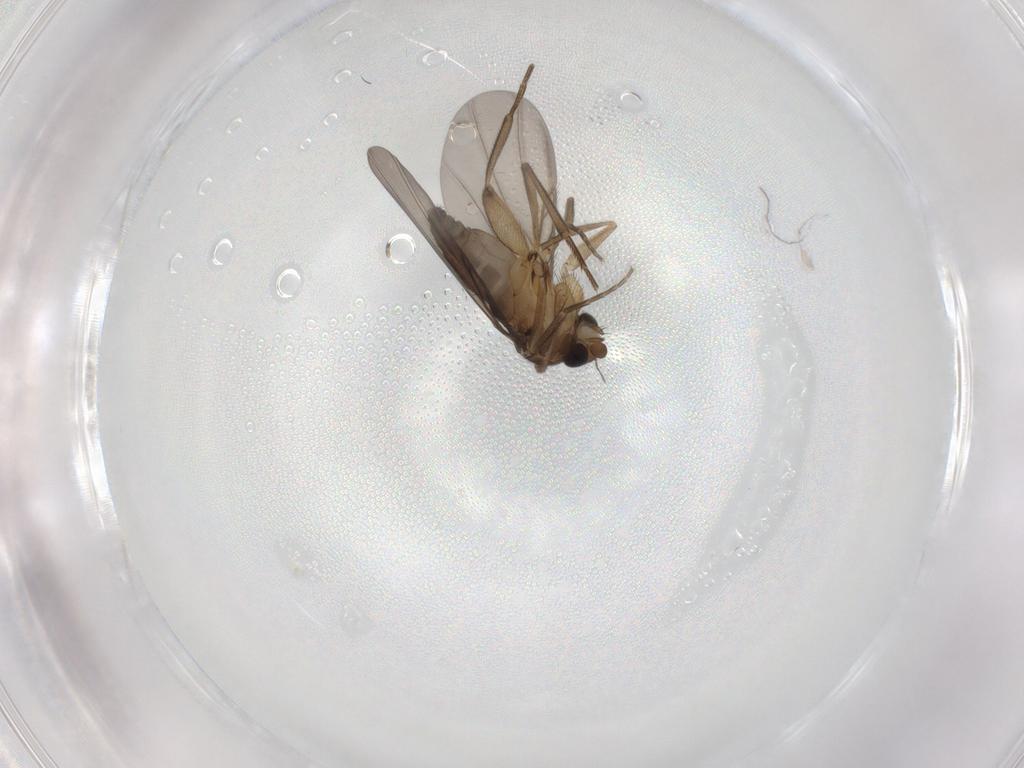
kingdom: Animalia
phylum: Arthropoda
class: Insecta
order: Diptera
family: Phoridae
